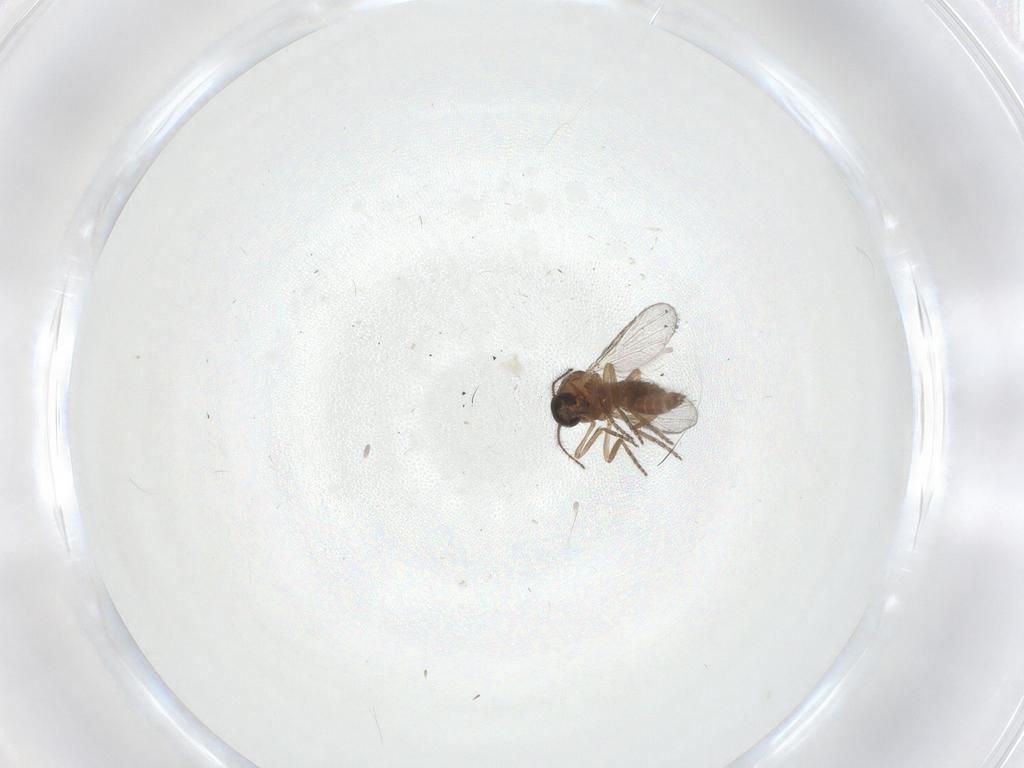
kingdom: Animalia
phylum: Arthropoda
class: Insecta
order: Diptera
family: Ceratopogonidae
